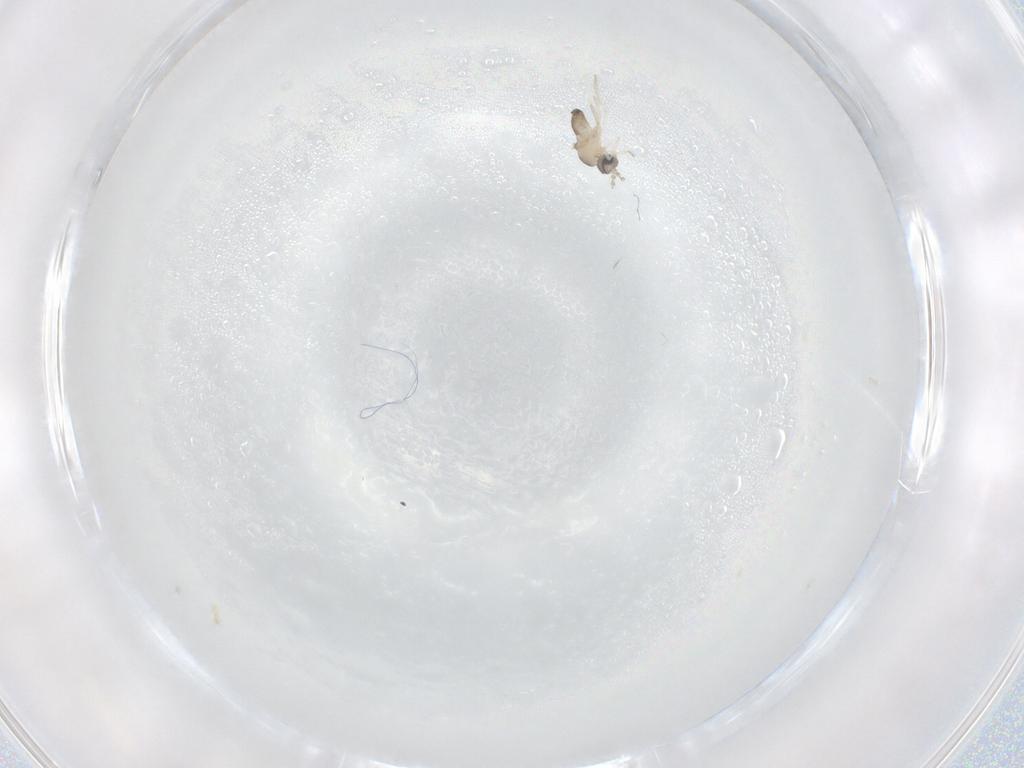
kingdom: Animalia
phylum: Arthropoda
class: Insecta
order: Diptera
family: Cecidomyiidae
